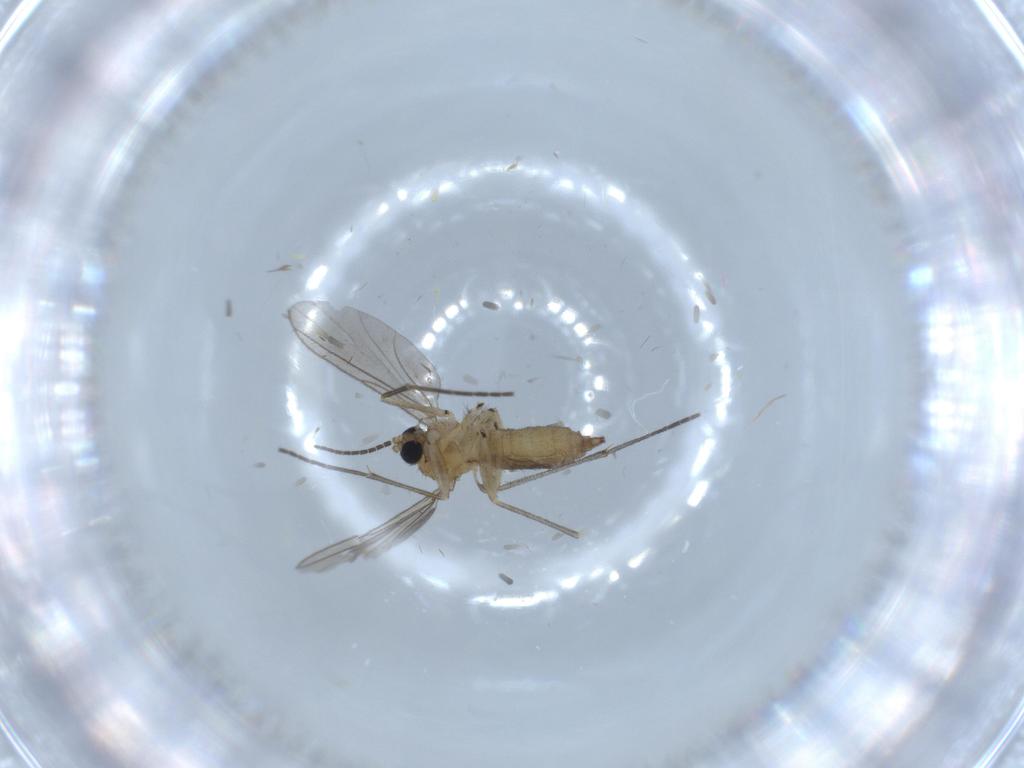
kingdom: Animalia
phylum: Arthropoda
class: Insecta
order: Diptera
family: Sciaridae
